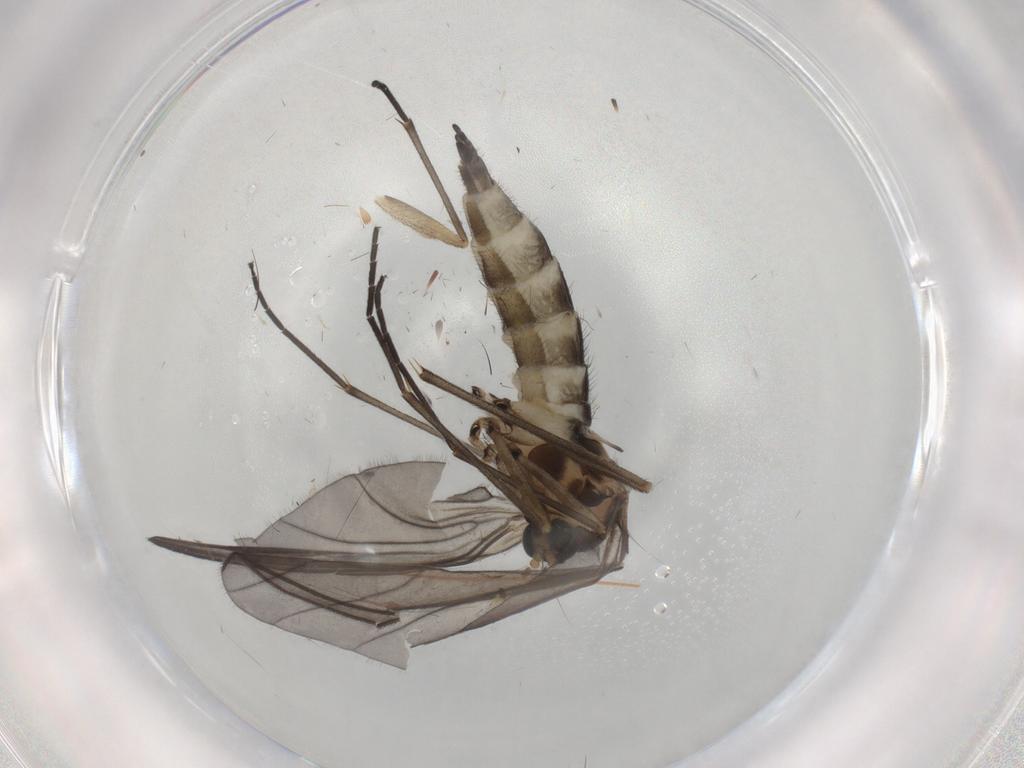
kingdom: Animalia
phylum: Arthropoda
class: Insecta
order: Diptera
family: Sciaridae
